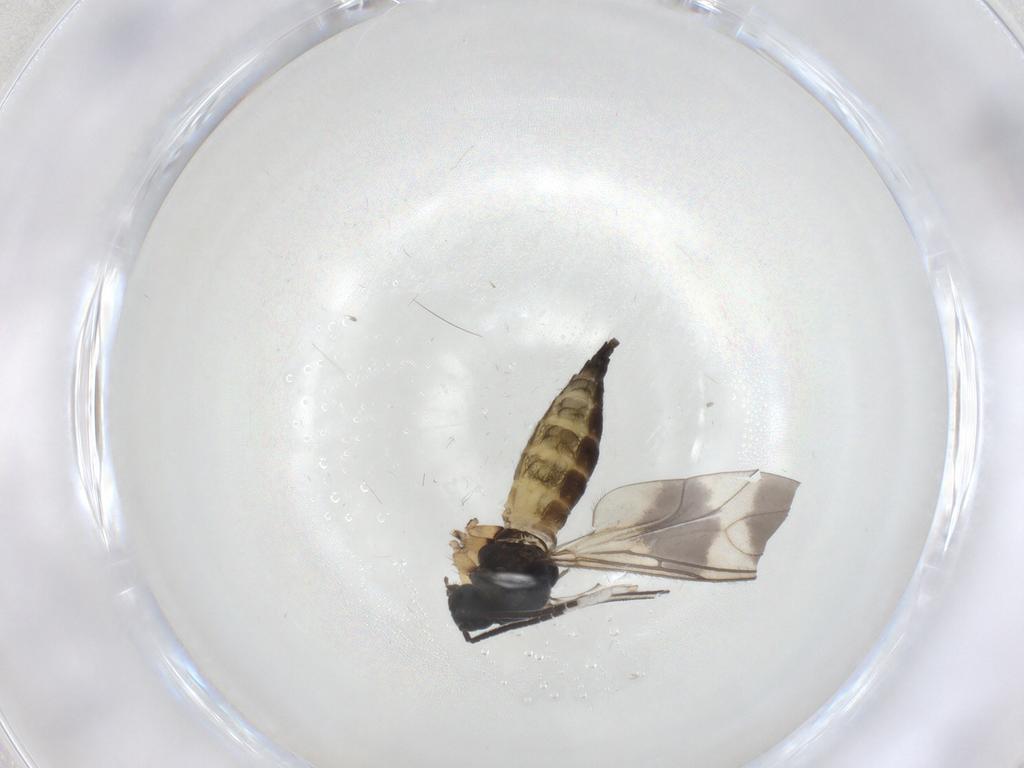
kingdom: Animalia
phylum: Arthropoda
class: Insecta
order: Diptera
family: Sciaridae
